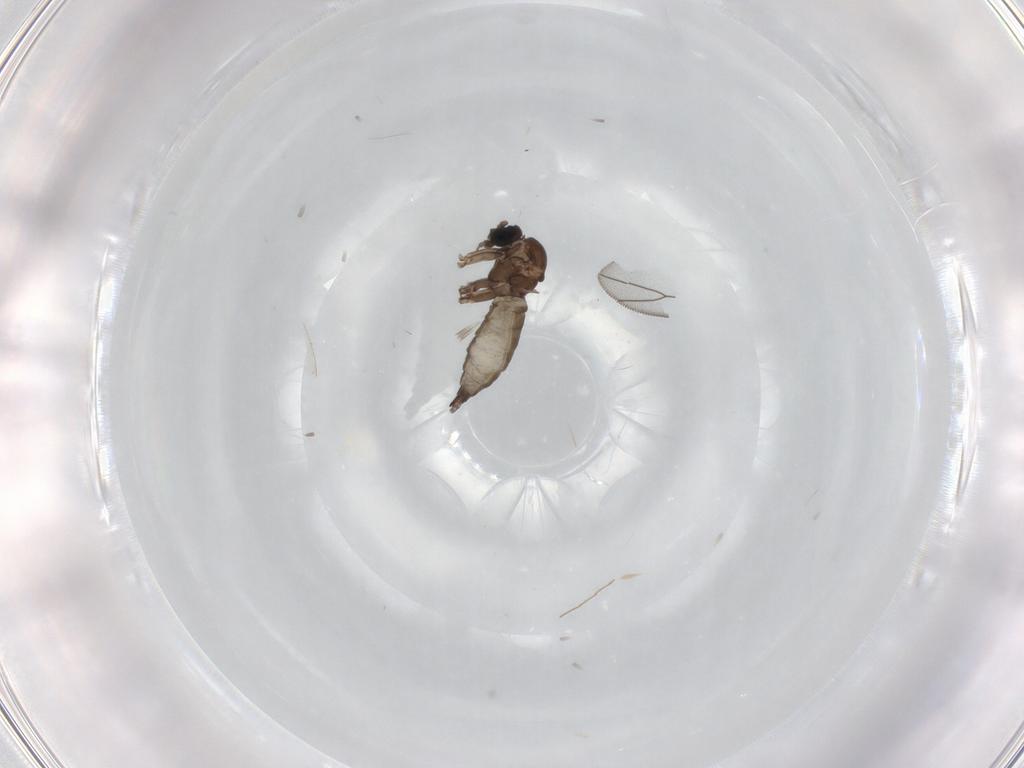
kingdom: Animalia
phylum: Arthropoda
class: Insecta
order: Diptera
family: Sciaridae
